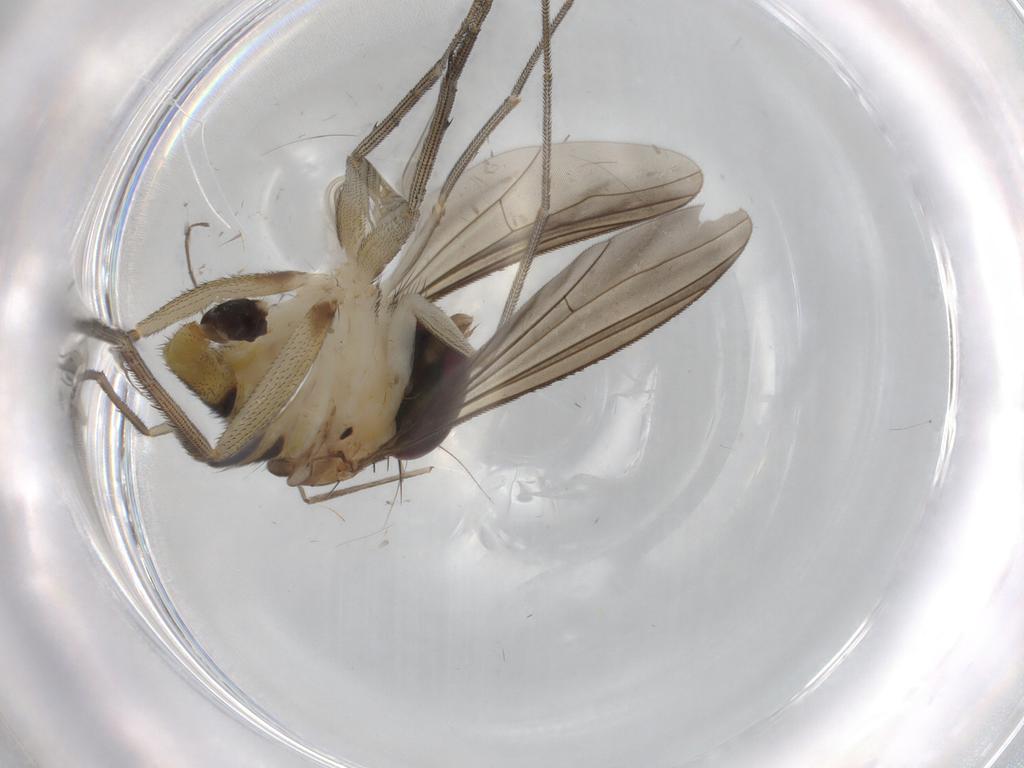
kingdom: Animalia
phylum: Arthropoda
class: Insecta
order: Diptera
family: Dolichopodidae
